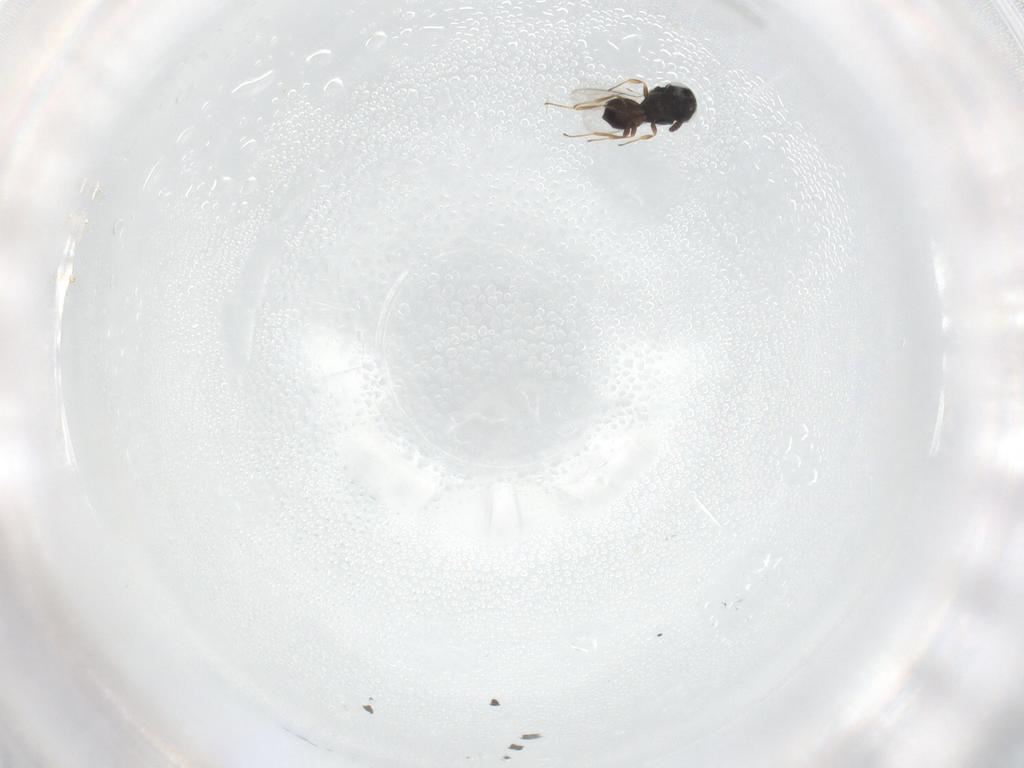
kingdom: Animalia
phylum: Arthropoda
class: Insecta
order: Hymenoptera
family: Scelionidae
